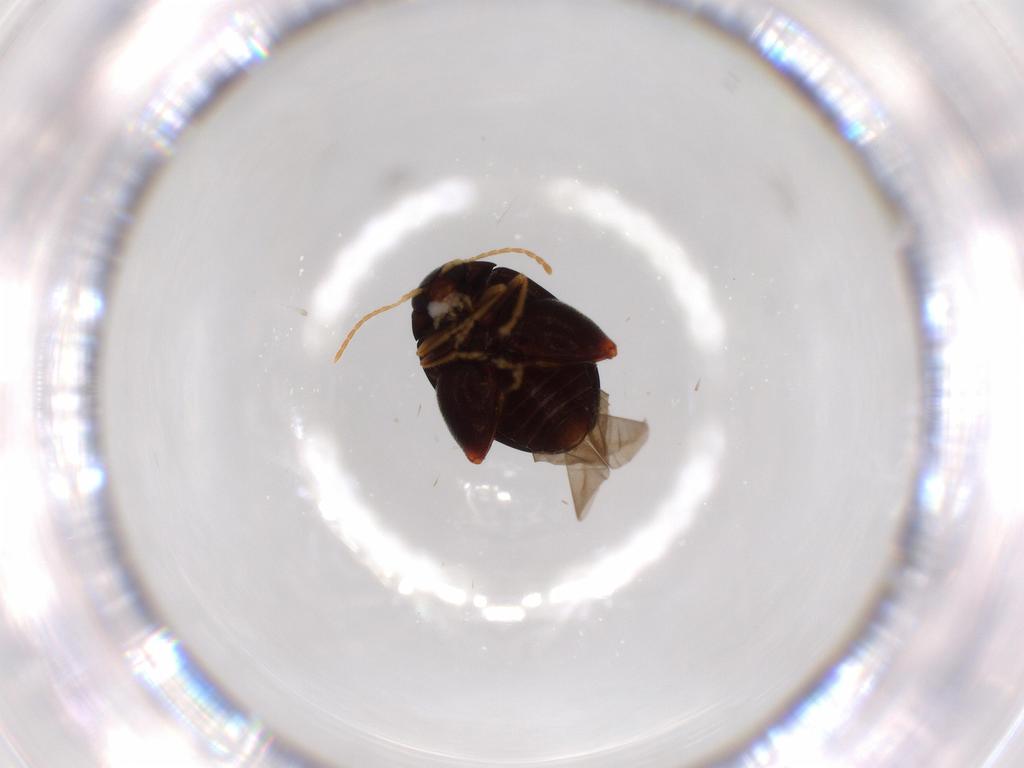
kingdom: Animalia
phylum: Arthropoda
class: Insecta
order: Coleoptera
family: Chrysomelidae
